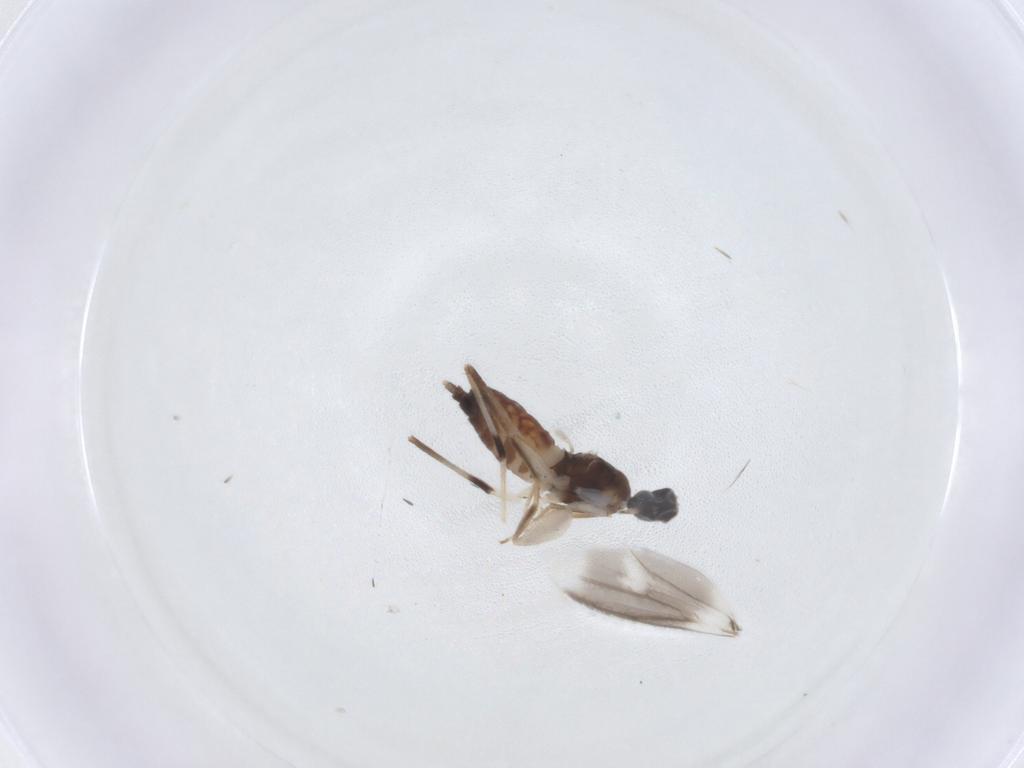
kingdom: Animalia
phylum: Arthropoda
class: Insecta
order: Diptera
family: Hybotidae
